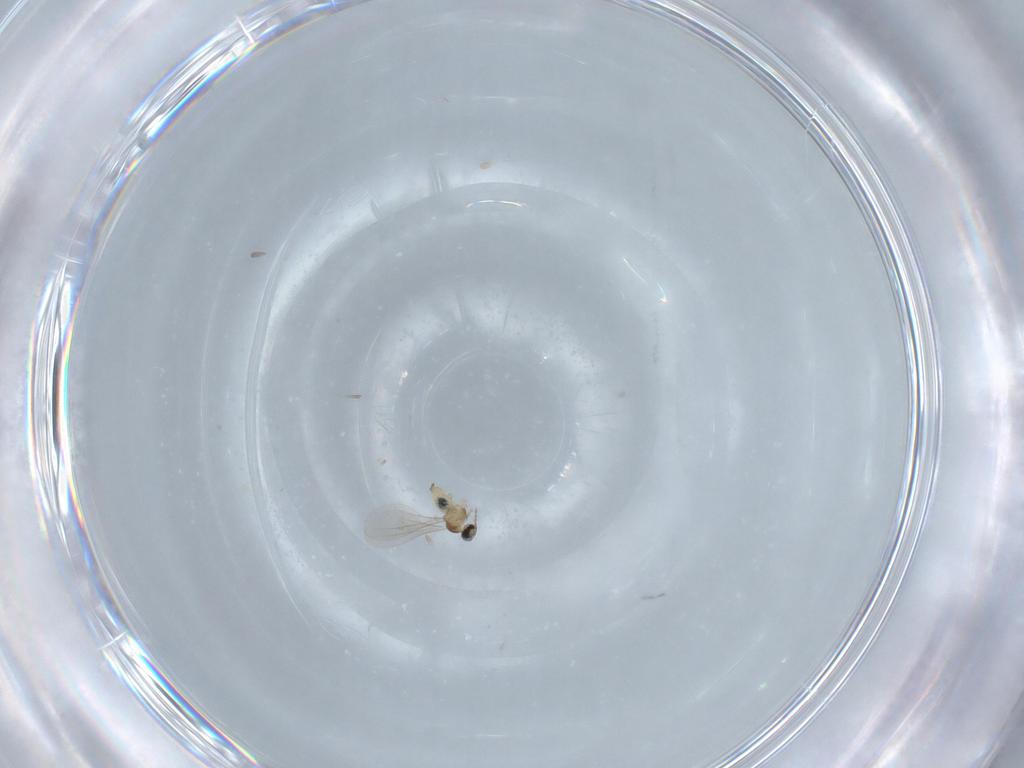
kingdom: Animalia
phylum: Arthropoda
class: Insecta
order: Diptera
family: Cecidomyiidae
